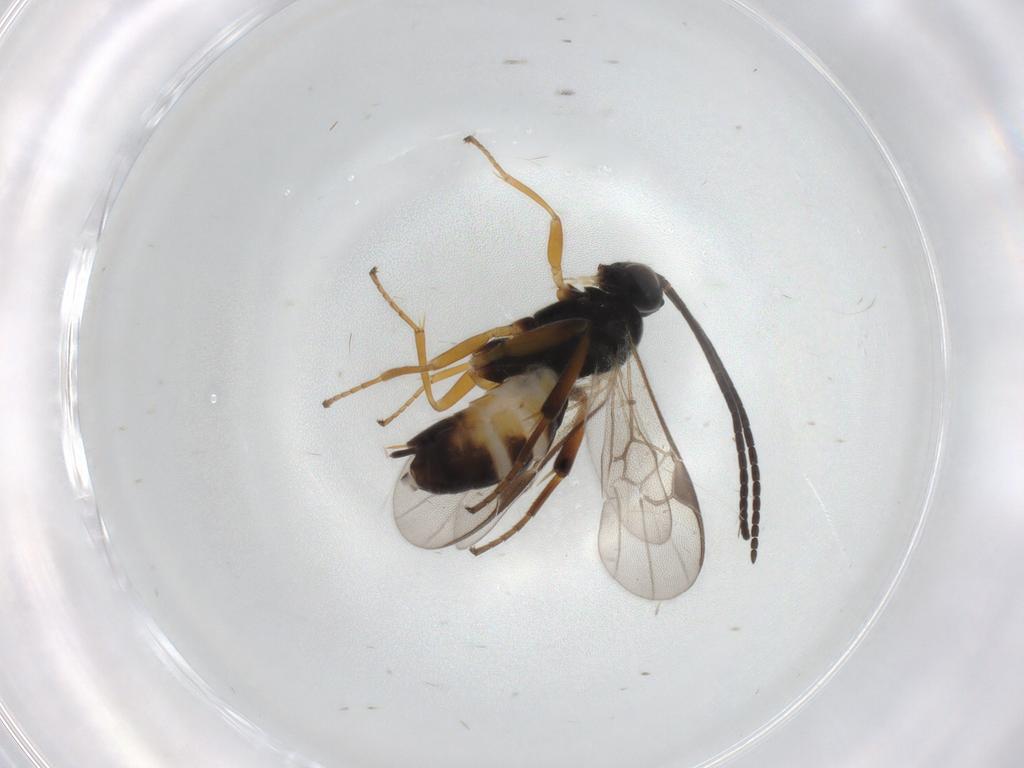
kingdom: Animalia
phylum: Arthropoda
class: Insecta
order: Hymenoptera
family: Braconidae
